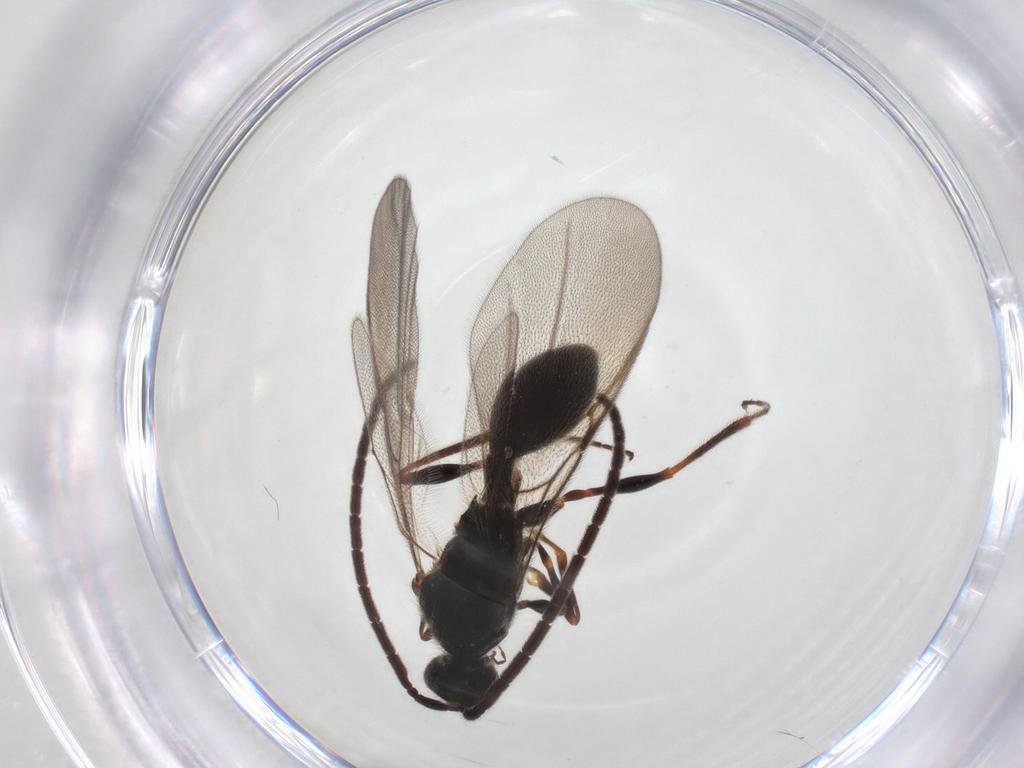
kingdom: Animalia
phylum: Arthropoda
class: Insecta
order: Hymenoptera
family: Diapriidae
